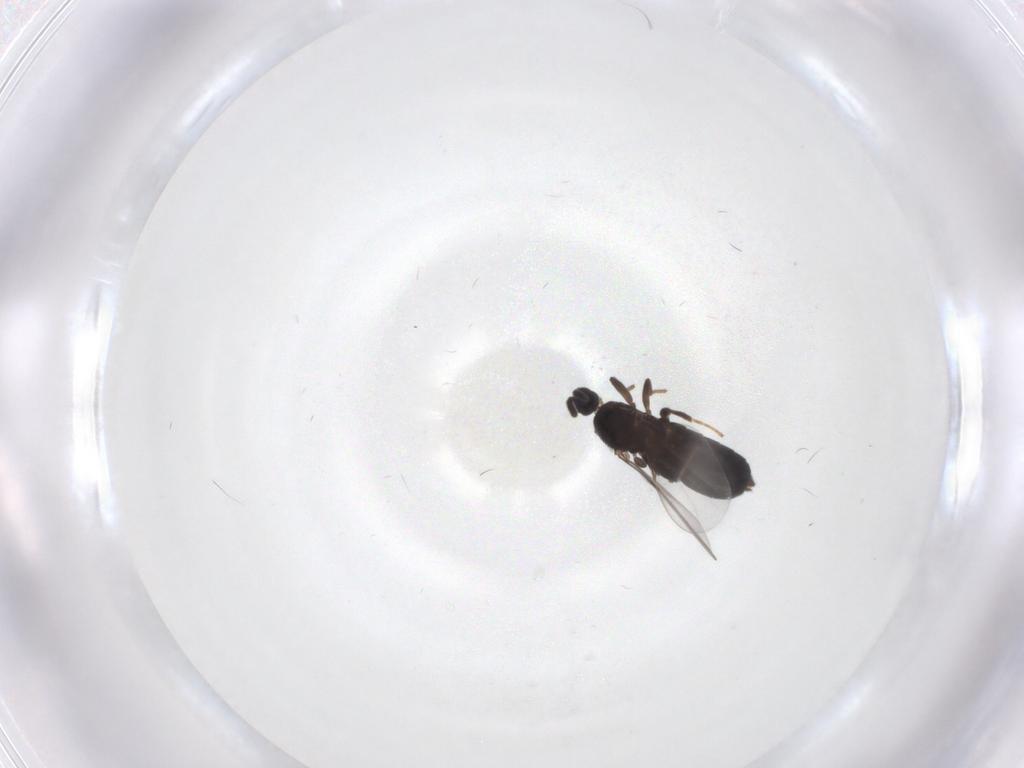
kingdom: Animalia
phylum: Arthropoda
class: Insecta
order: Diptera
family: Scatopsidae
